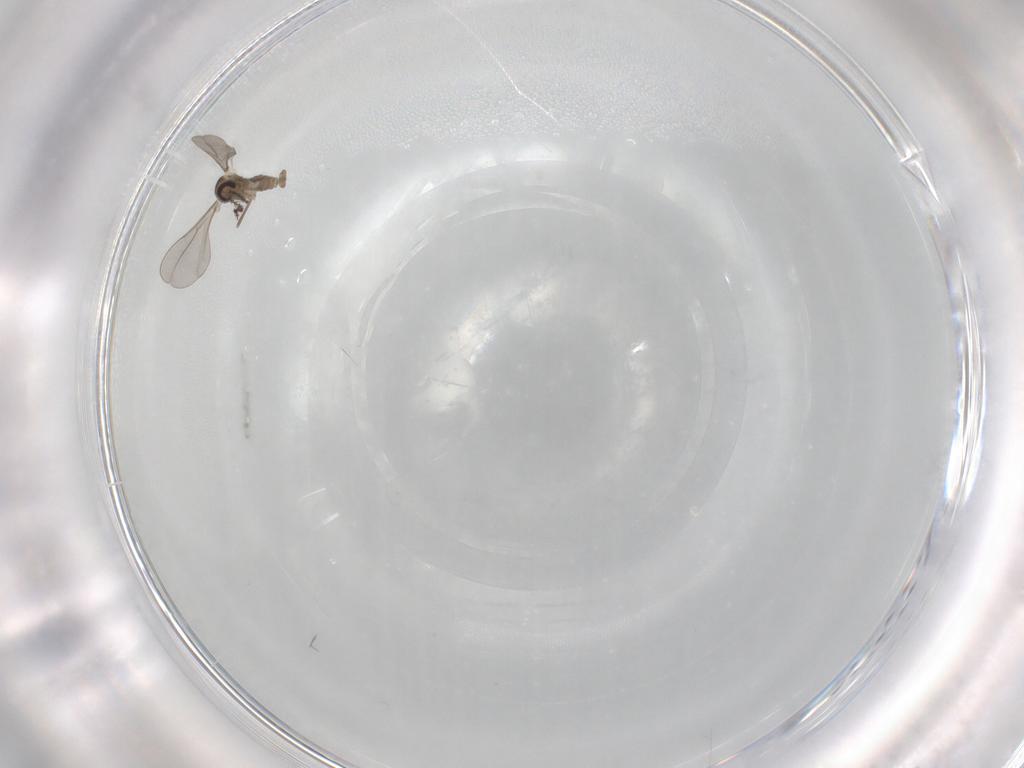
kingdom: Animalia
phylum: Arthropoda
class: Insecta
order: Diptera
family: Cecidomyiidae
